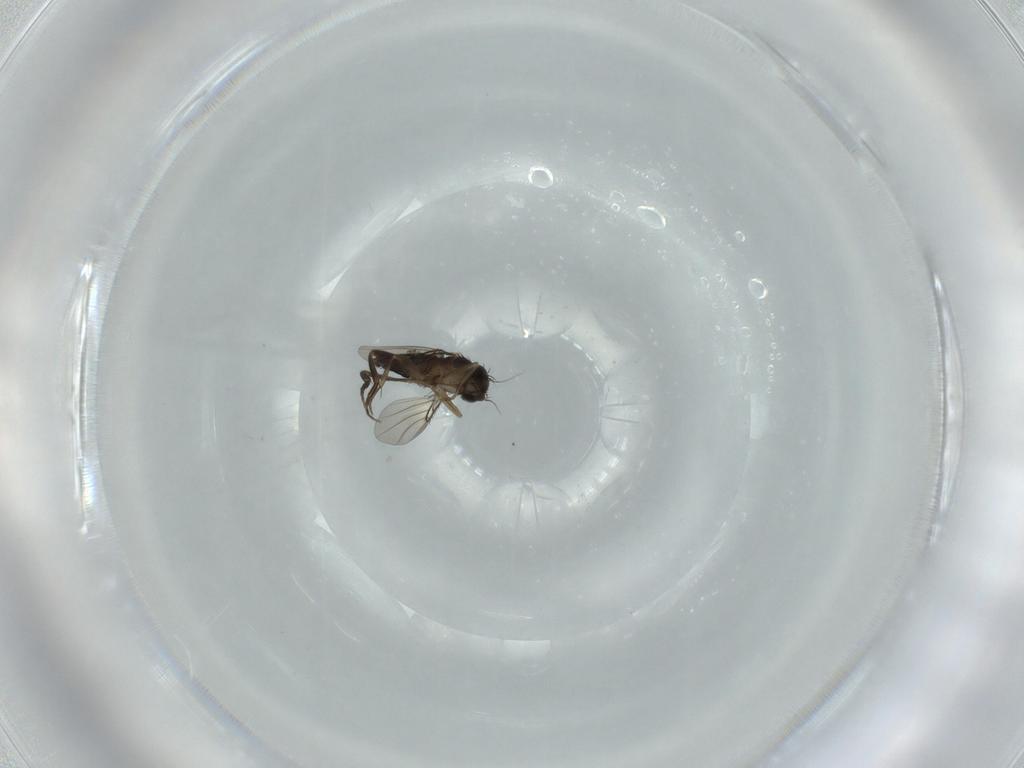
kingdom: Animalia
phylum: Arthropoda
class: Insecta
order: Diptera
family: Phoridae
